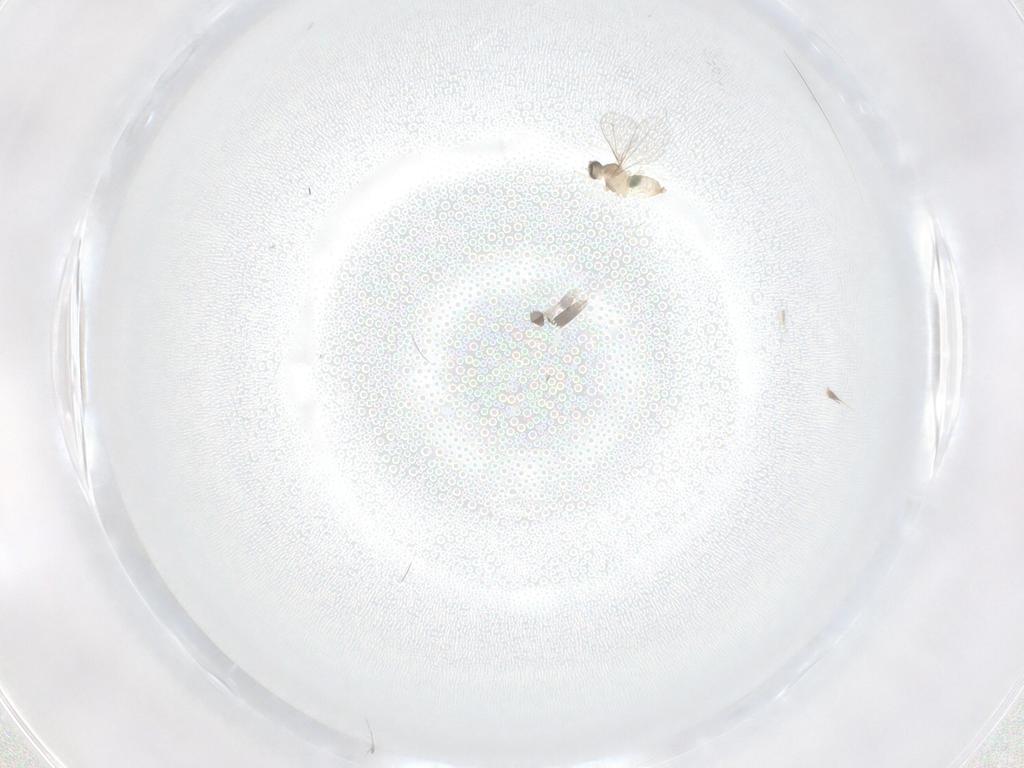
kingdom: Animalia
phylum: Arthropoda
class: Insecta
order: Diptera
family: Cecidomyiidae
